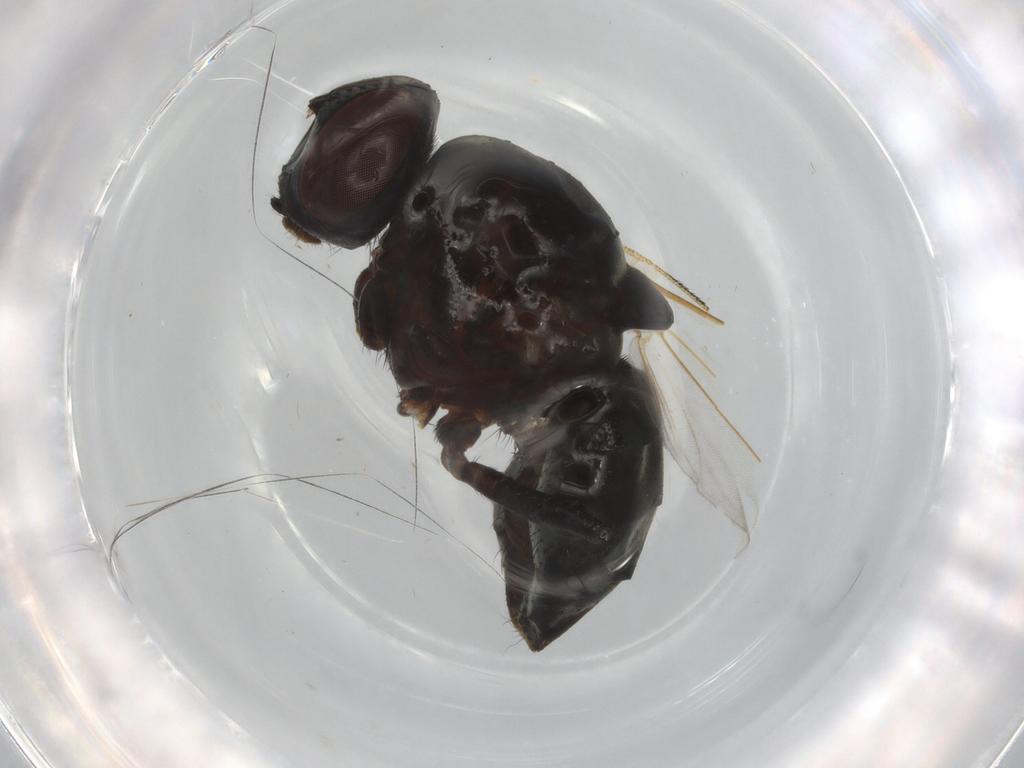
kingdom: Animalia
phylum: Arthropoda
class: Insecta
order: Diptera
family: Muscidae
